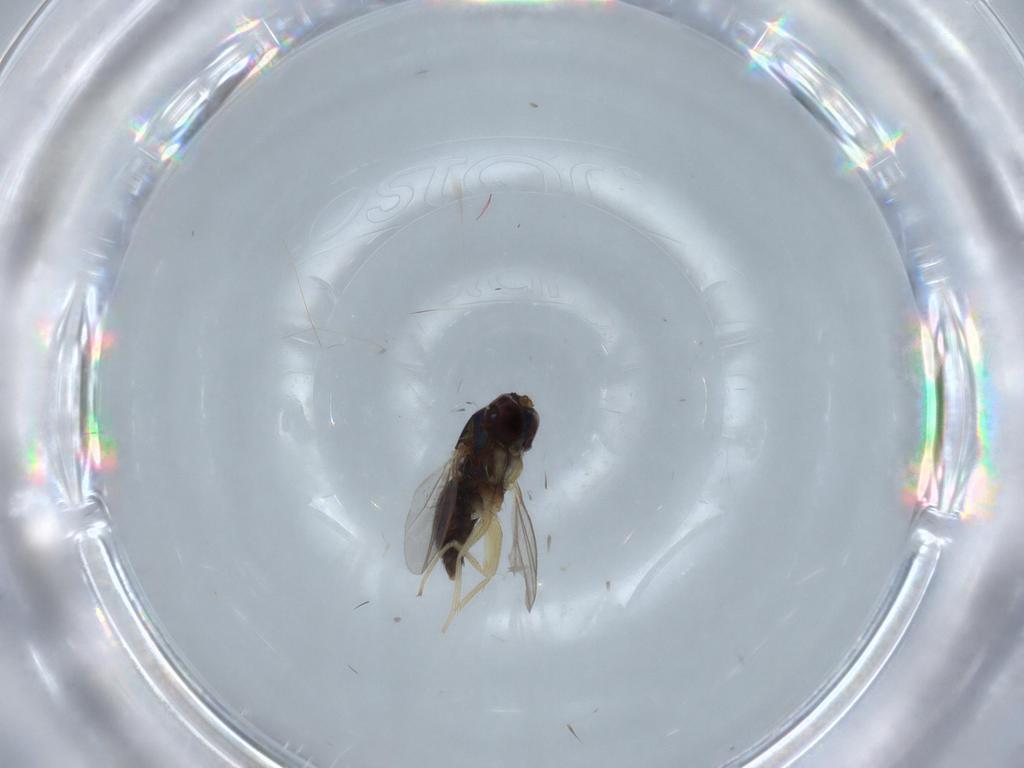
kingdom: Animalia
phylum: Arthropoda
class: Insecta
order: Diptera
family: Dolichopodidae
